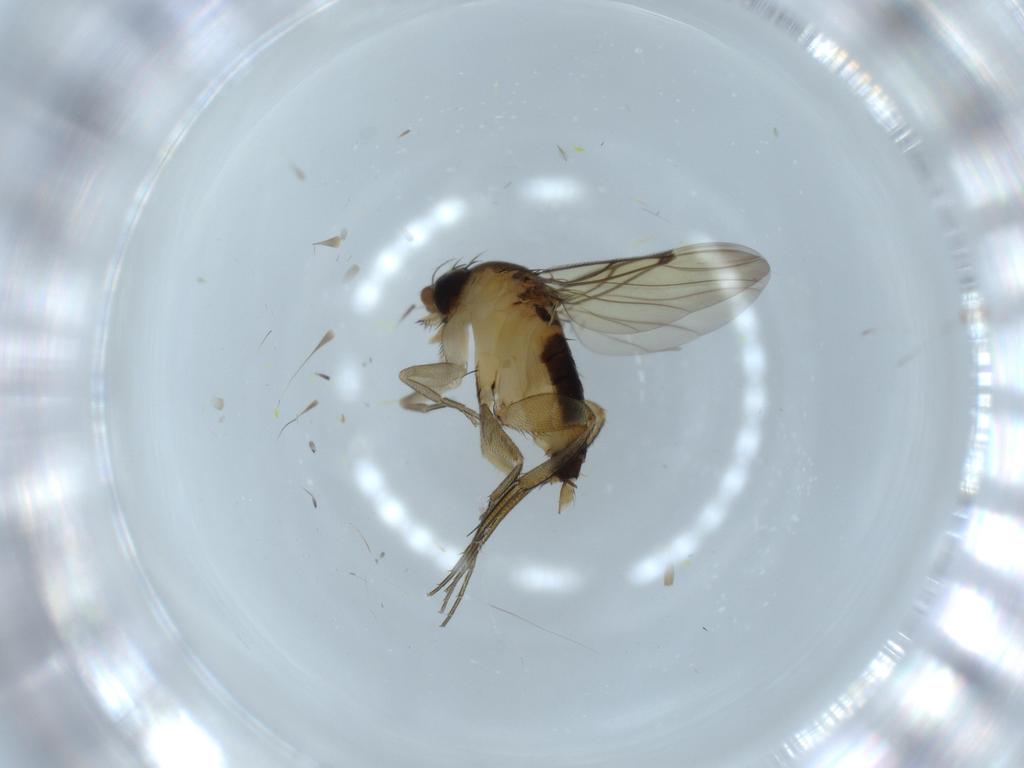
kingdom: Animalia
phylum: Arthropoda
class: Insecta
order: Diptera
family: Phoridae
